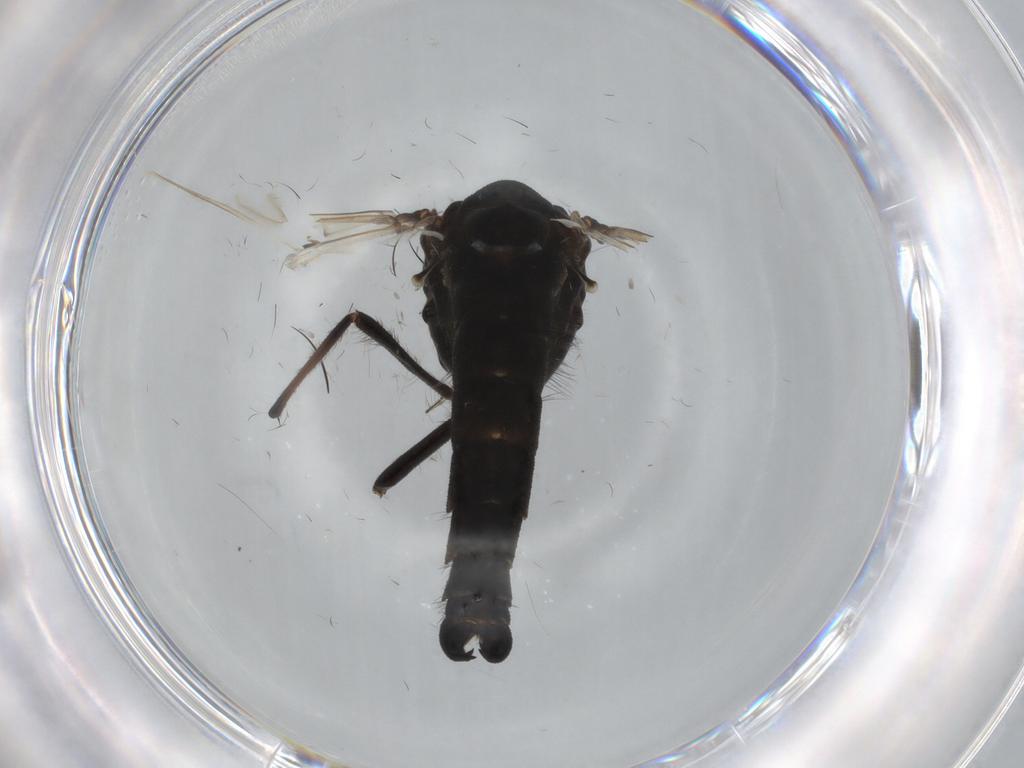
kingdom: Animalia
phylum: Arthropoda
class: Insecta
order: Diptera
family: Chironomidae
